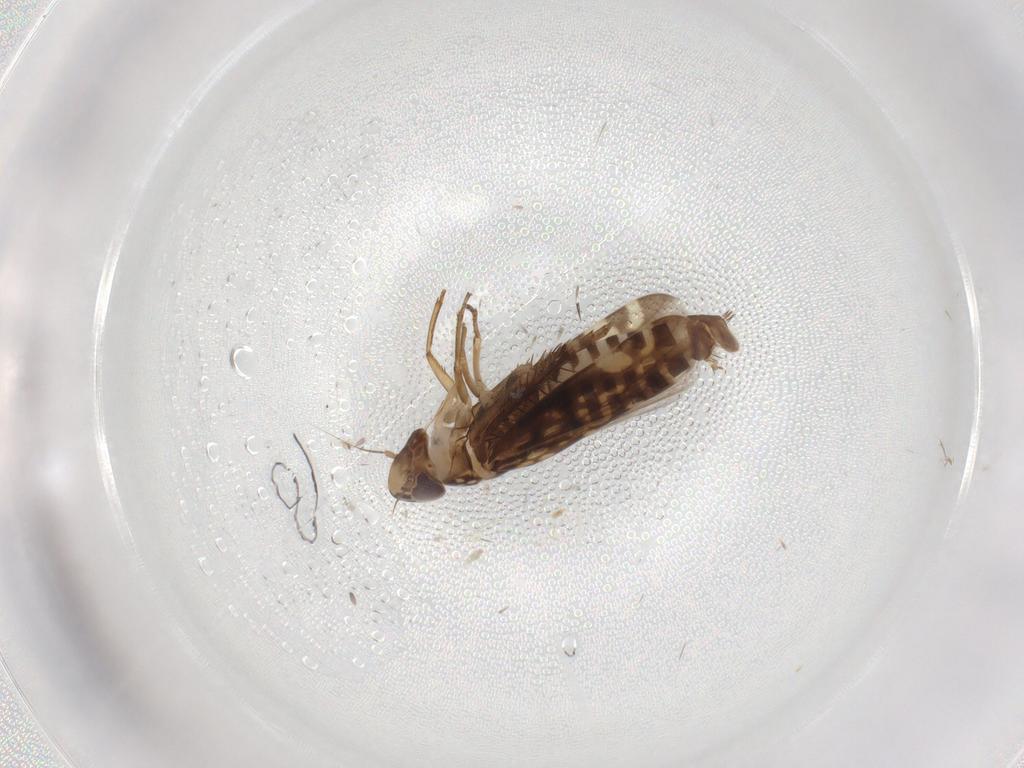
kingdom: Animalia
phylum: Arthropoda
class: Insecta
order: Hemiptera
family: Cicadellidae
